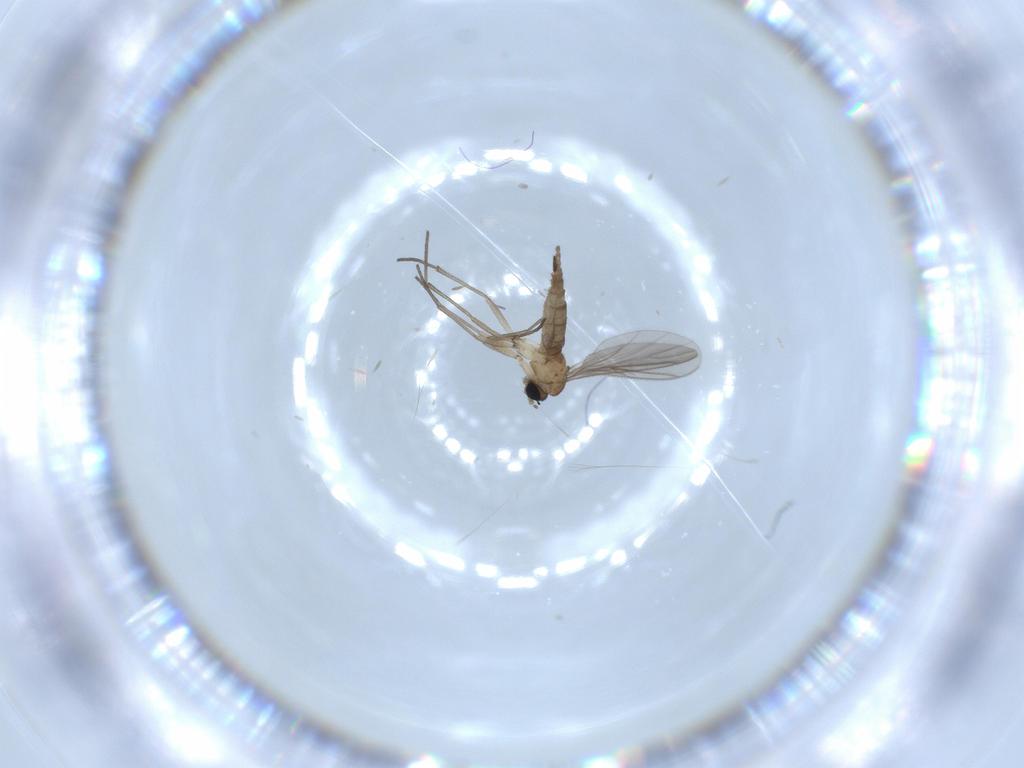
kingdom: Animalia
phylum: Arthropoda
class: Insecta
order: Diptera
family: Sciaridae
